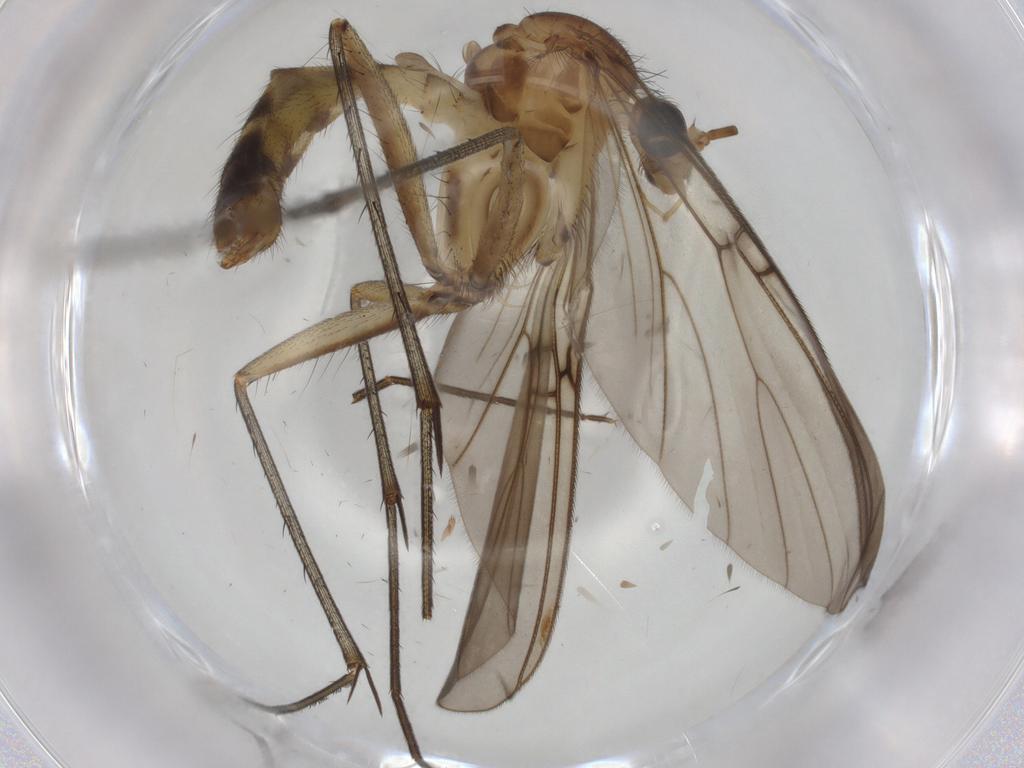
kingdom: Animalia
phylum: Arthropoda
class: Insecta
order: Diptera
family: Mycetophilidae
